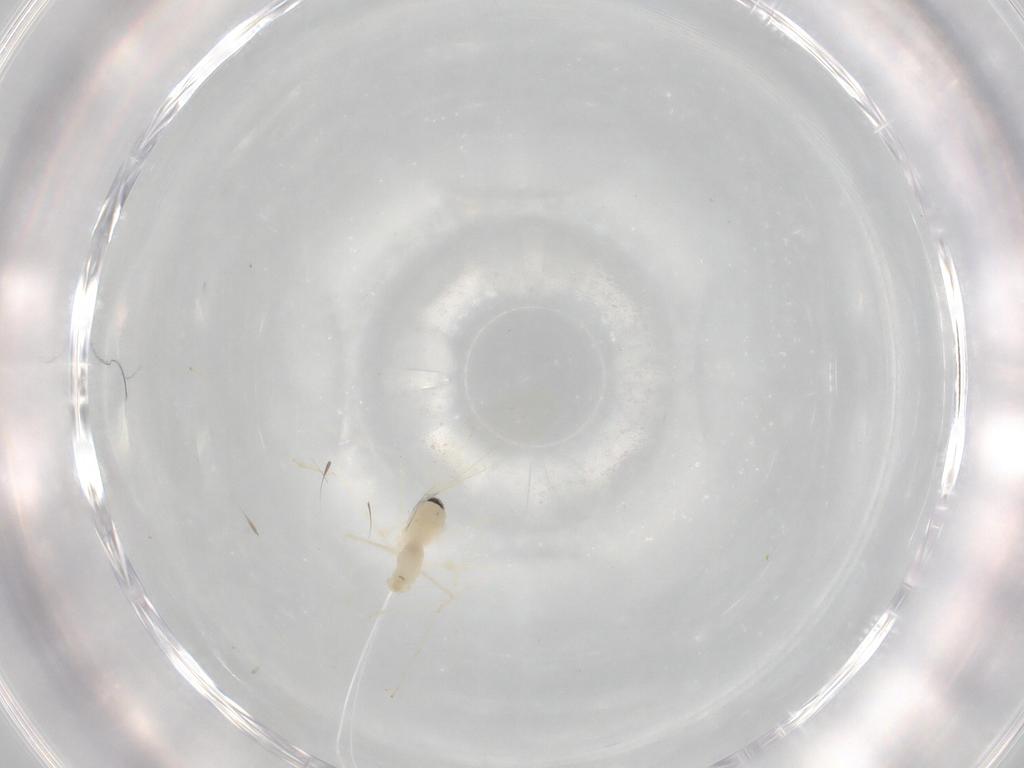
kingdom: Animalia
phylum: Arthropoda
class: Insecta
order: Diptera
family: Cecidomyiidae
